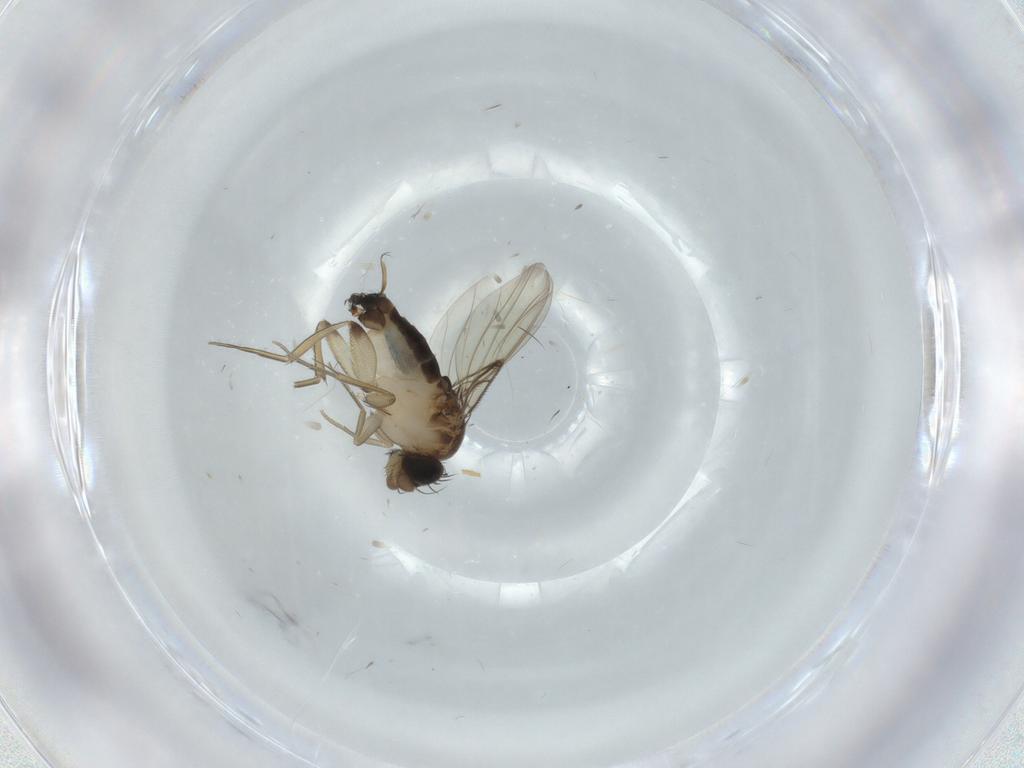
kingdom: Animalia
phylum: Arthropoda
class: Insecta
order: Diptera
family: Phoridae
